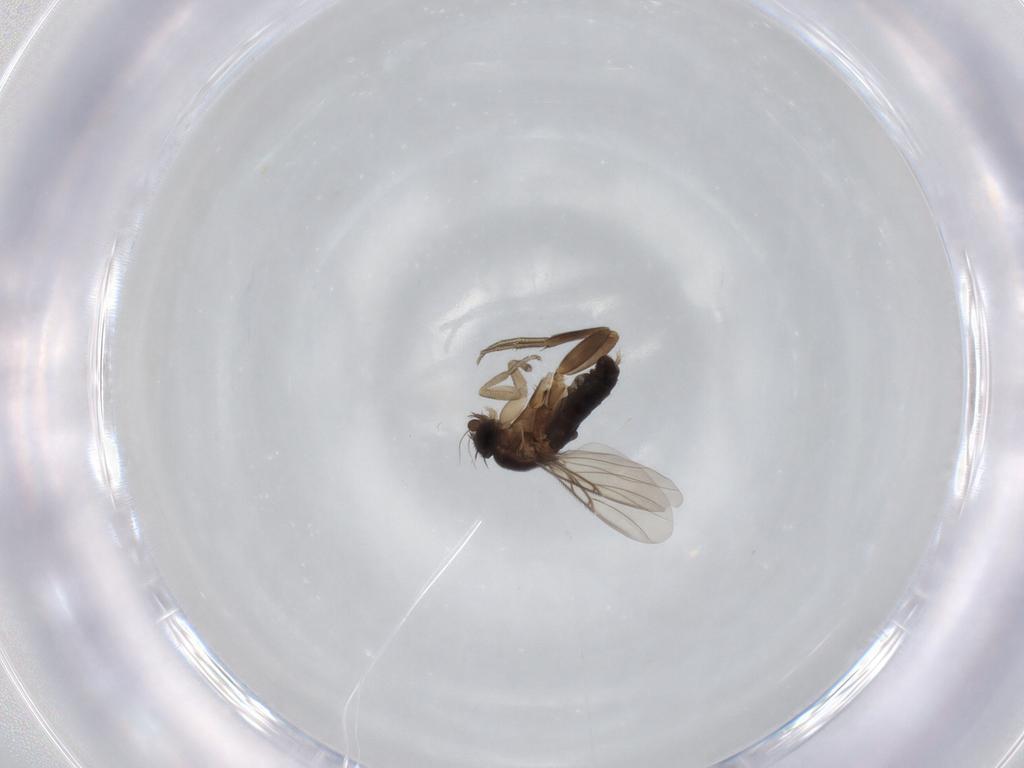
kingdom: Animalia
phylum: Arthropoda
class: Insecta
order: Diptera
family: Phoridae
